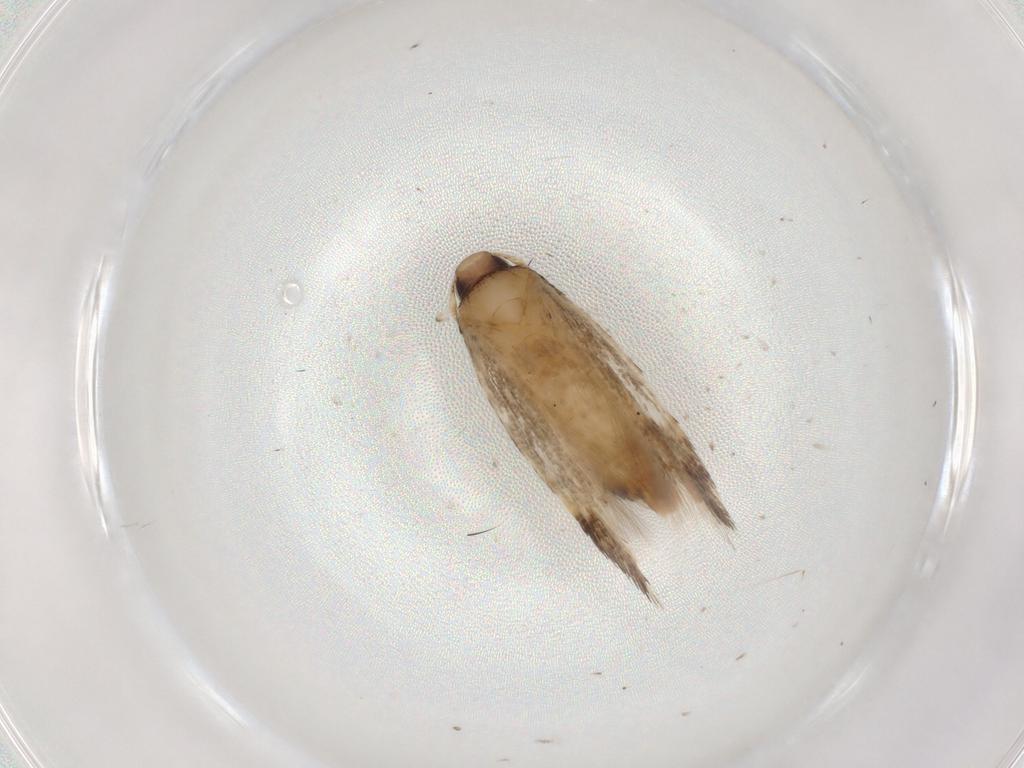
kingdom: Animalia
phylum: Arthropoda
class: Insecta
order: Lepidoptera
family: Cosmopterigidae
